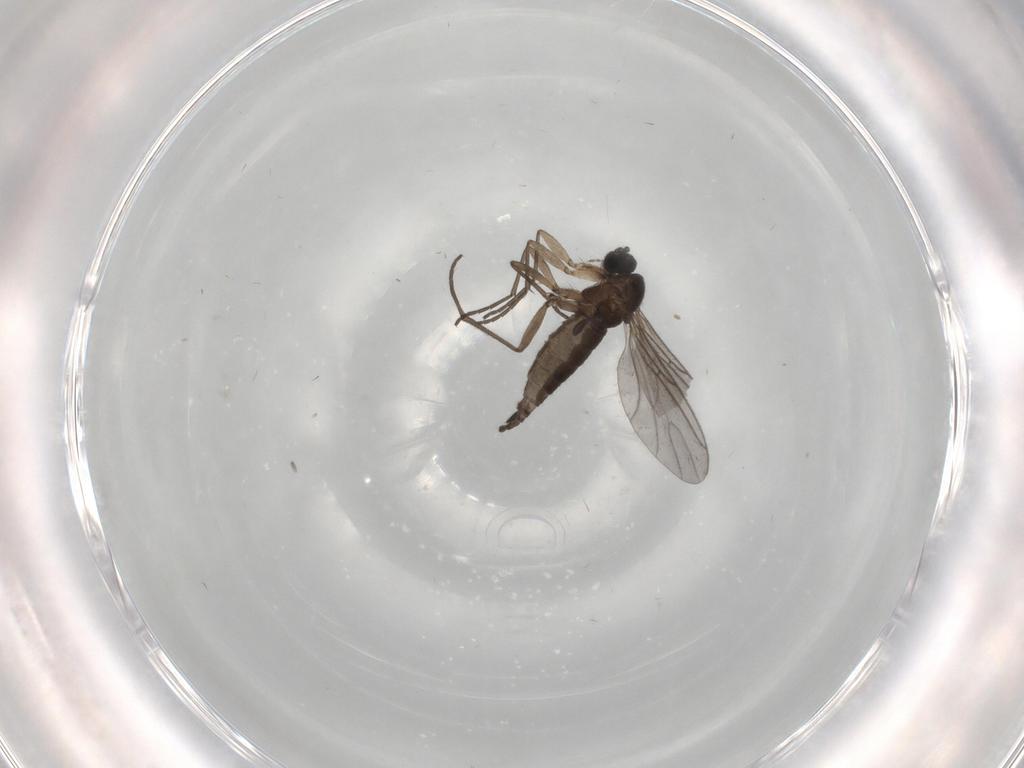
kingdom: Animalia
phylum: Arthropoda
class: Insecta
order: Diptera
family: Sciaridae
